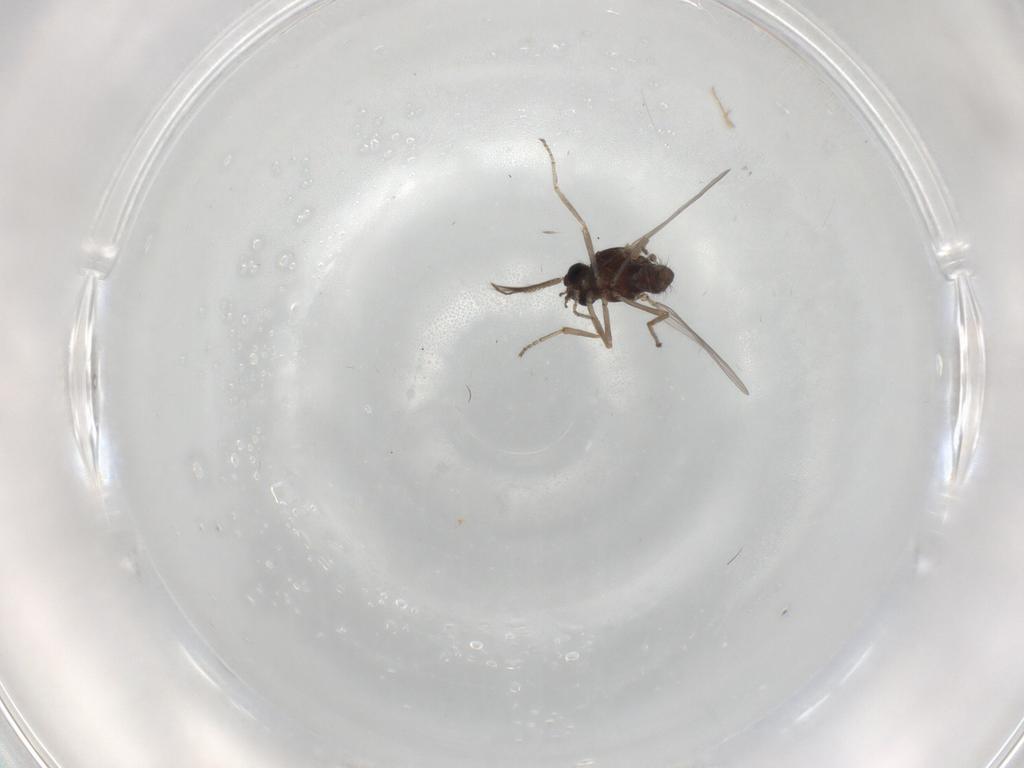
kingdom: Animalia
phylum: Arthropoda
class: Insecta
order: Diptera
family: Ceratopogonidae
